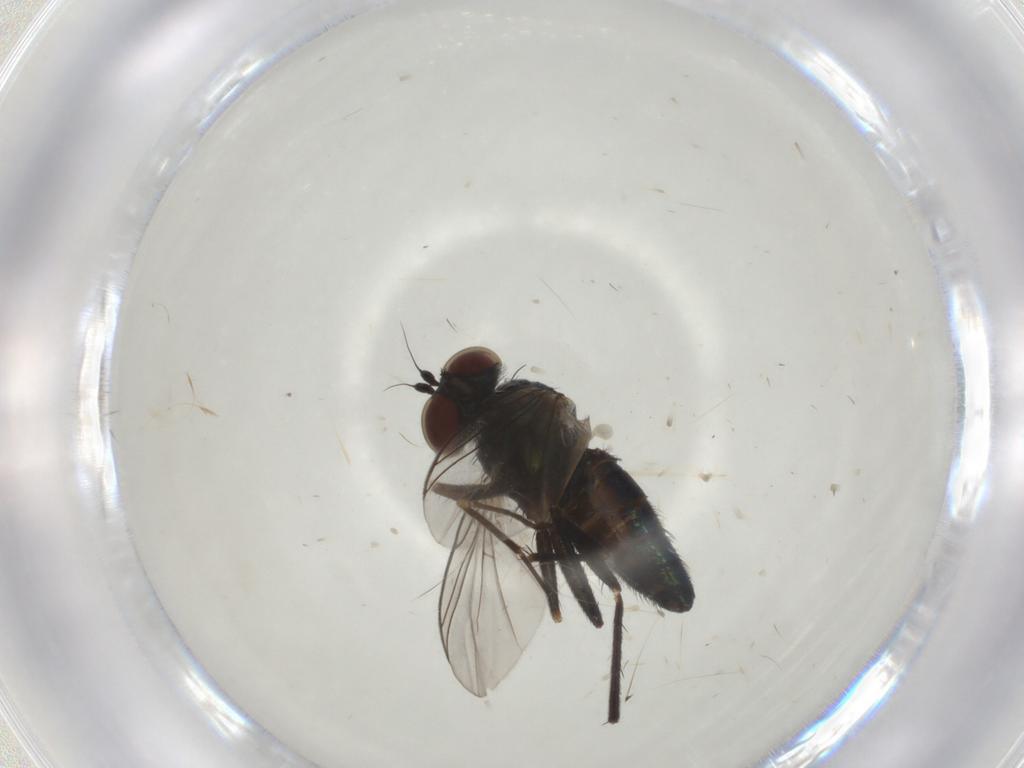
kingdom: Animalia
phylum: Arthropoda
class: Insecta
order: Diptera
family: Dolichopodidae
